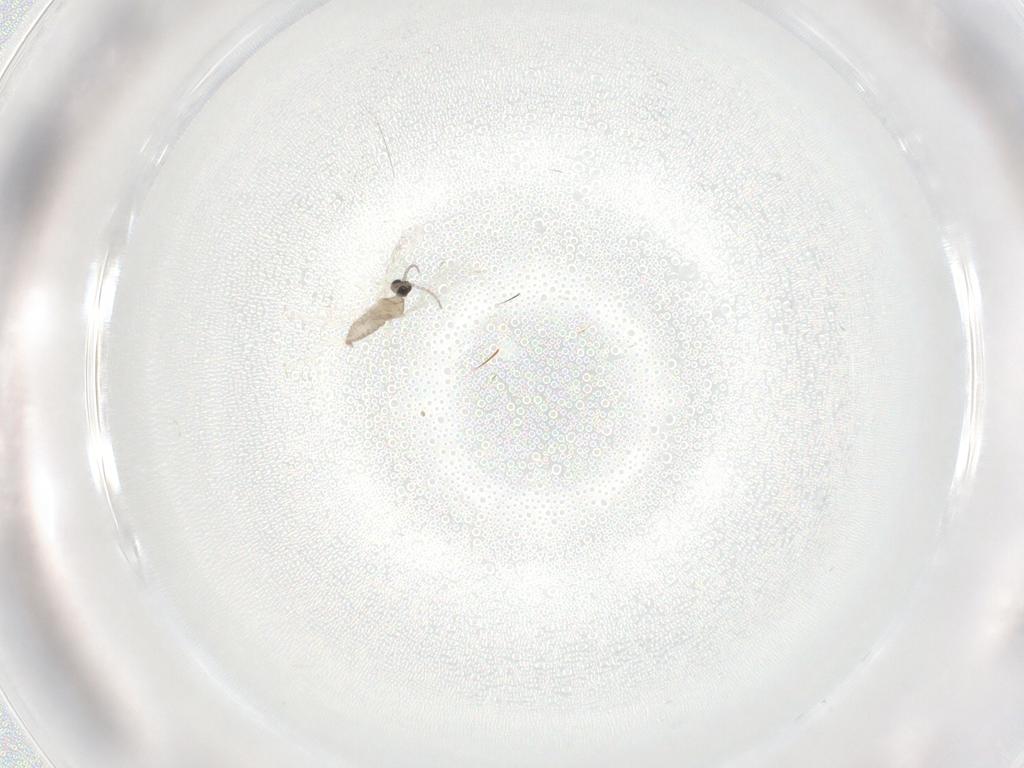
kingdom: Animalia
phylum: Arthropoda
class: Insecta
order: Diptera
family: Cecidomyiidae
